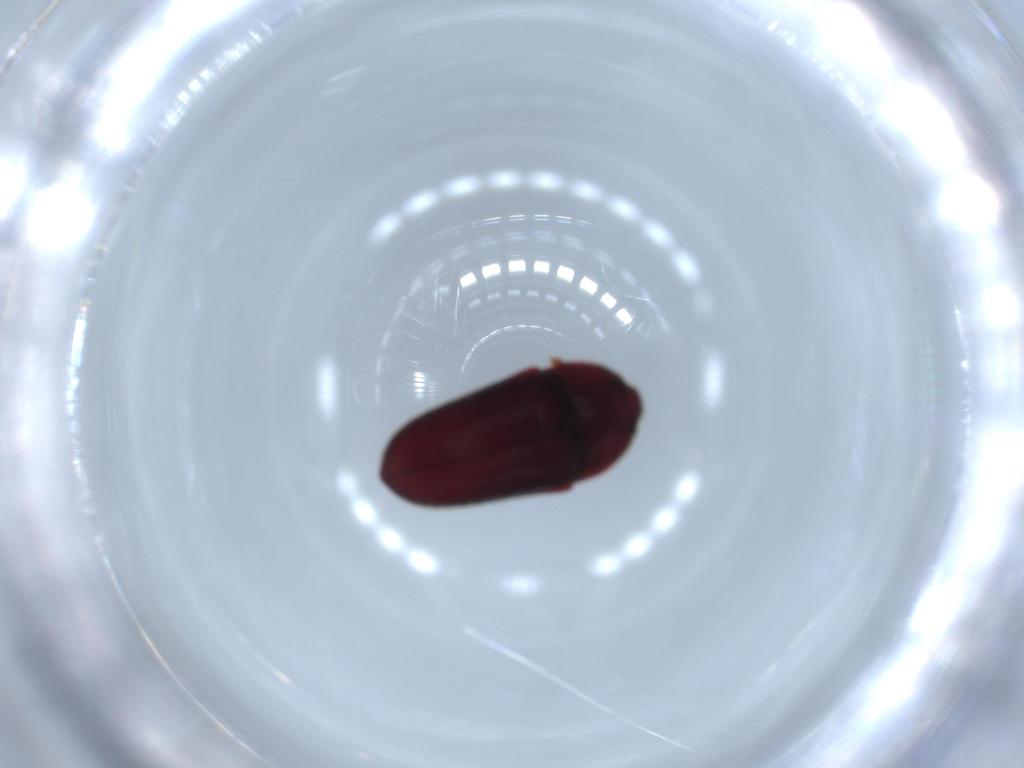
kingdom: Animalia
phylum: Arthropoda
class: Insecta
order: Coleoptera
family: Throscidae
